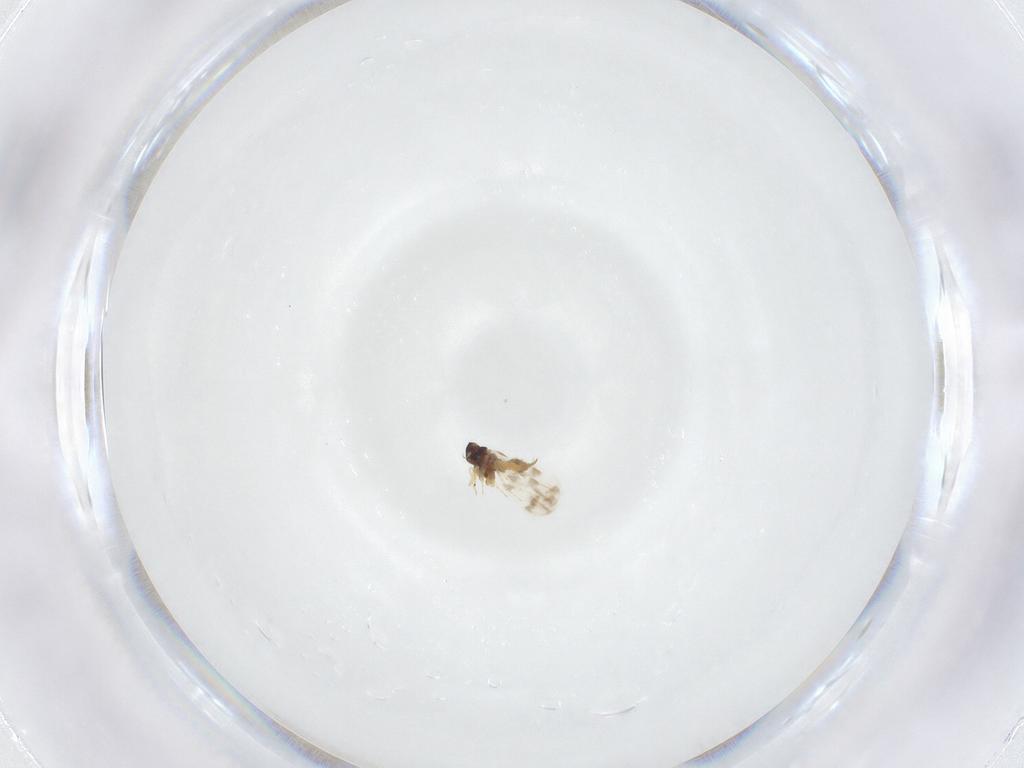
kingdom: Animalia
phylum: Arthropoda
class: Insecta
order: Hemiptera
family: Aleyrodidae
